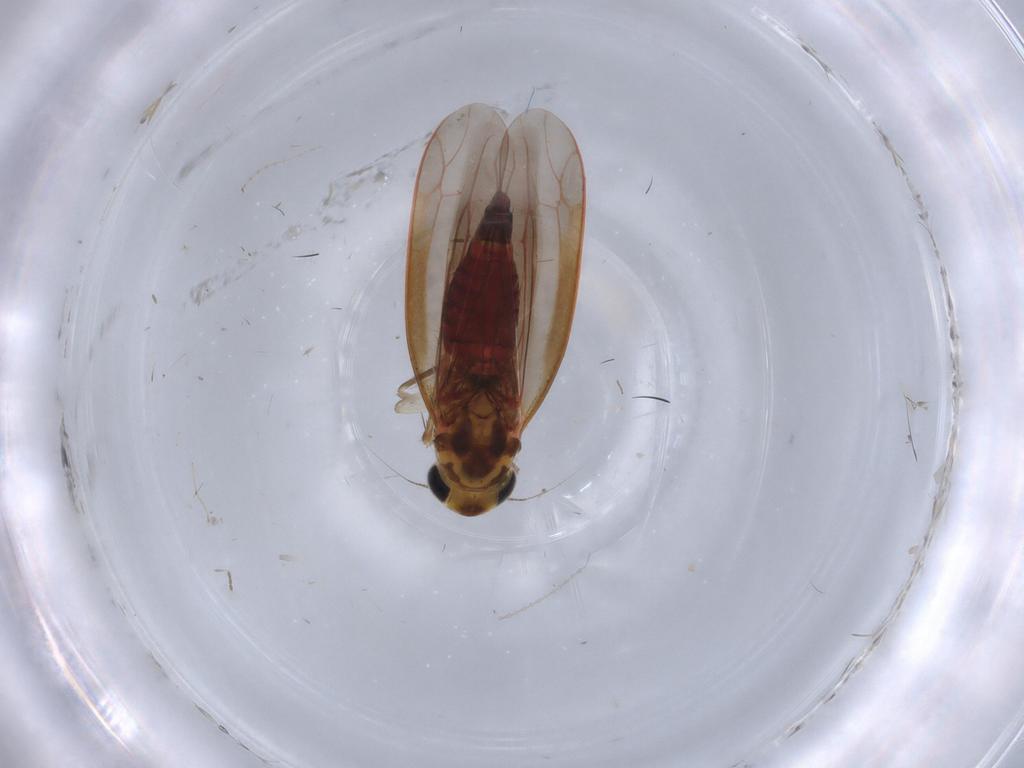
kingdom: Animalia
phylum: Arthropoda
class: Insecta
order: Hemiptera
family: Cicadellidae
